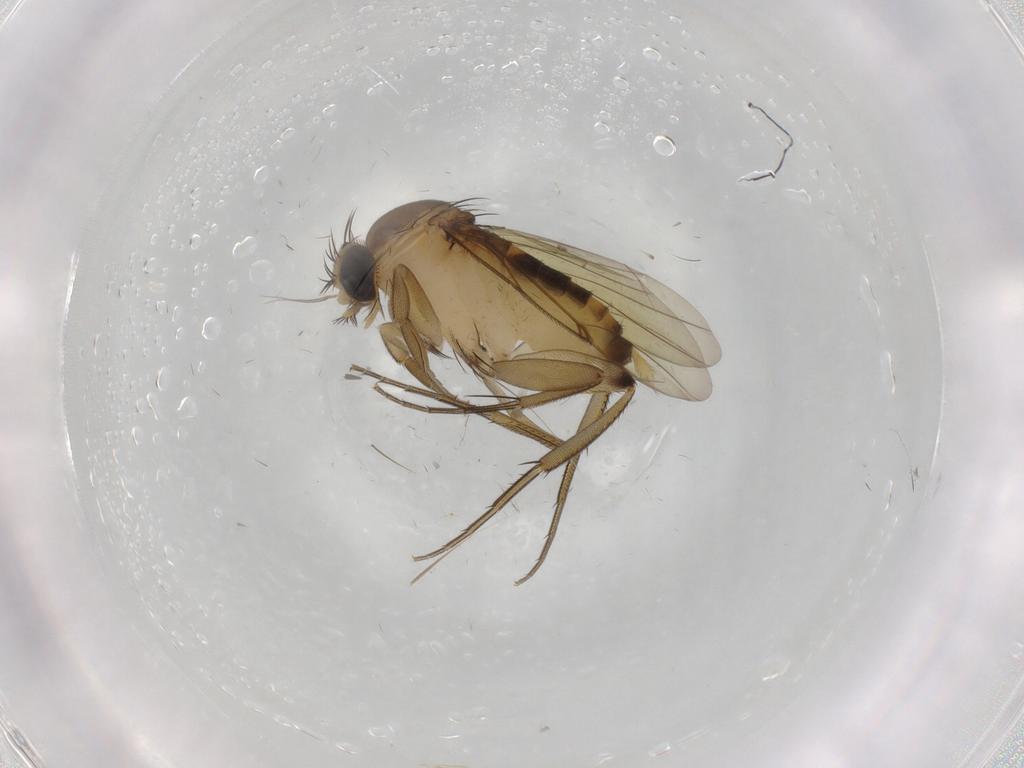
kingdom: Animalia
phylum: Arthropoda
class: Insecta
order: Diptera
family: Phoridae
